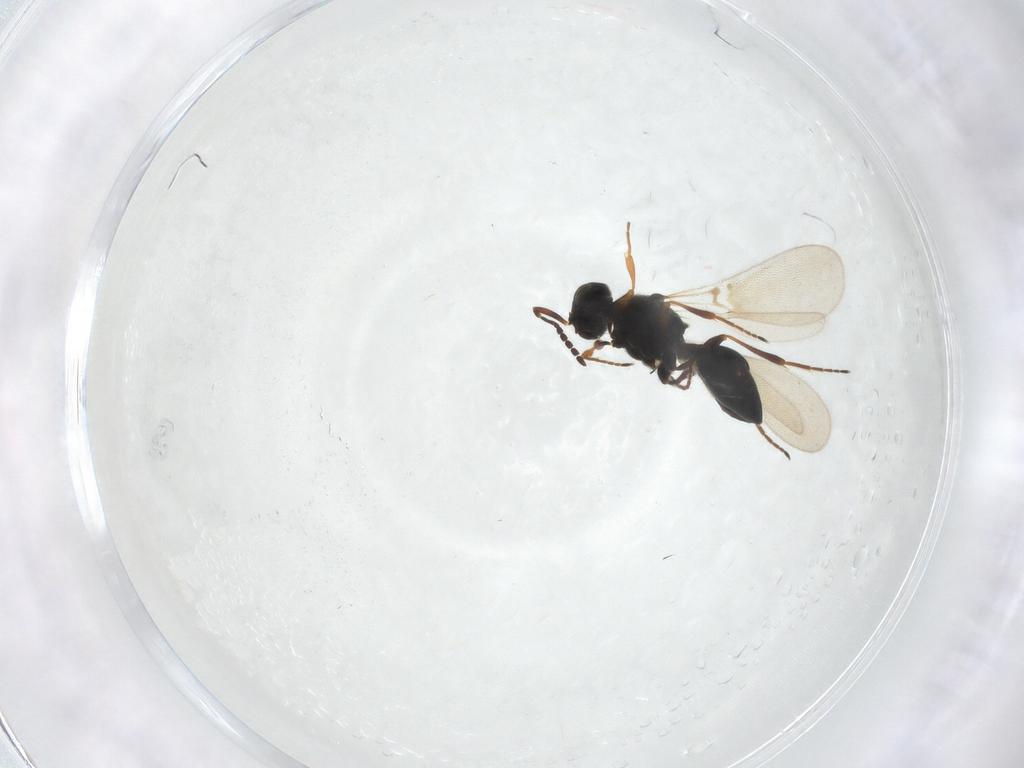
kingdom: Animalia
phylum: Arthropoda
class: Insecta
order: Hymenoptera
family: Platygastridae
